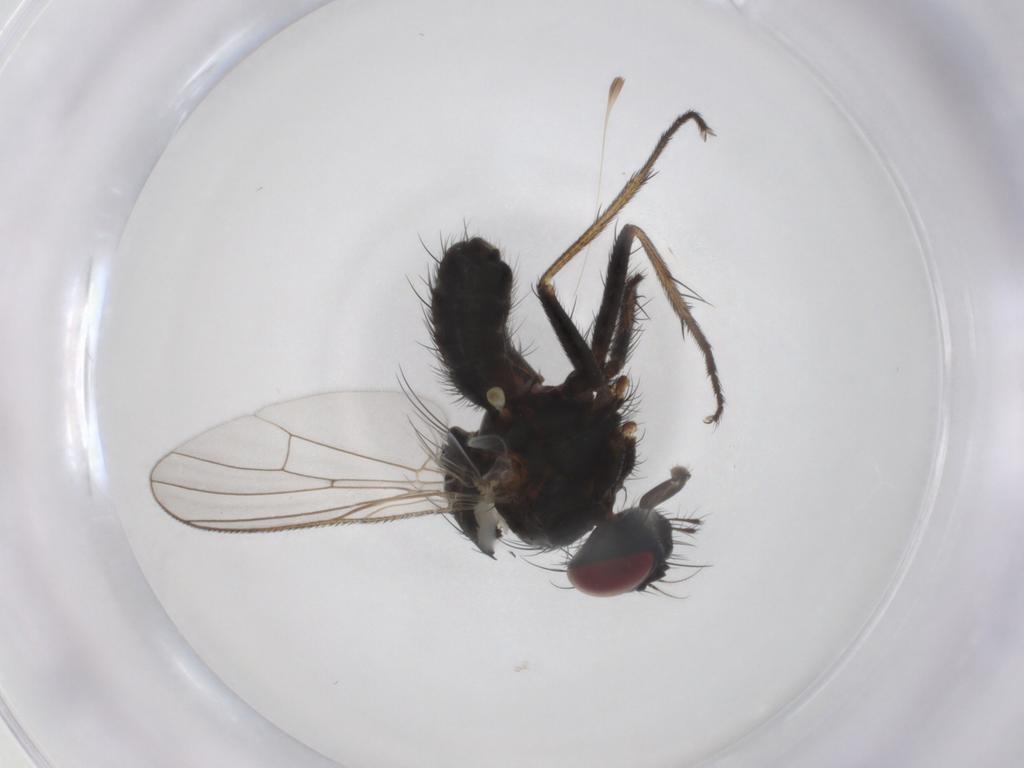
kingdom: Animalia
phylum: Arthropoda
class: Insecta
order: Diptera
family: Muscidae
